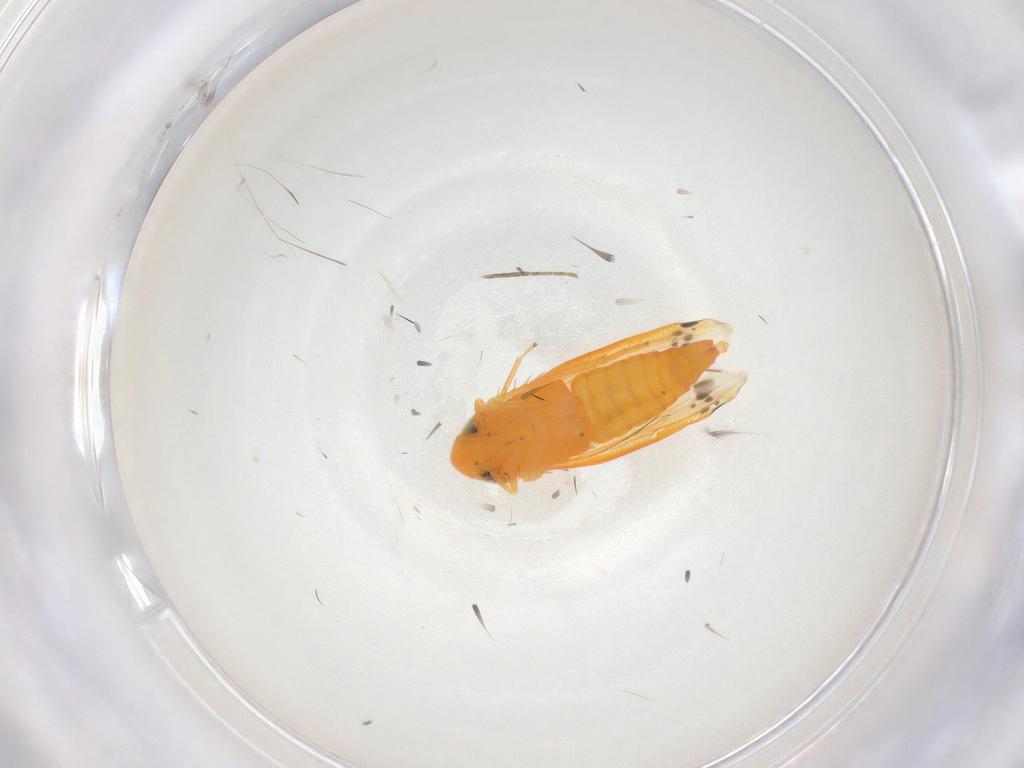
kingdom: Animalia
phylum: Arthropoda
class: Insecta
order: Hemiptera
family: Cicadellidae
